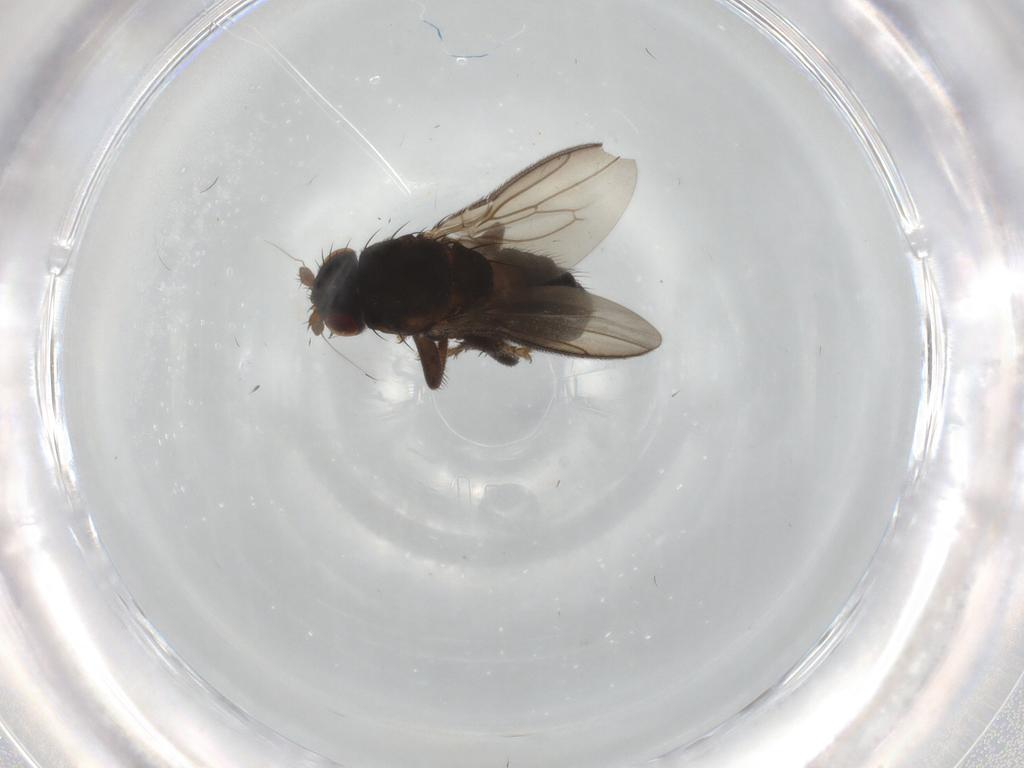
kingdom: Animalia
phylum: Arthropoda
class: Insecta
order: Diptera
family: Sphaeroceridae
